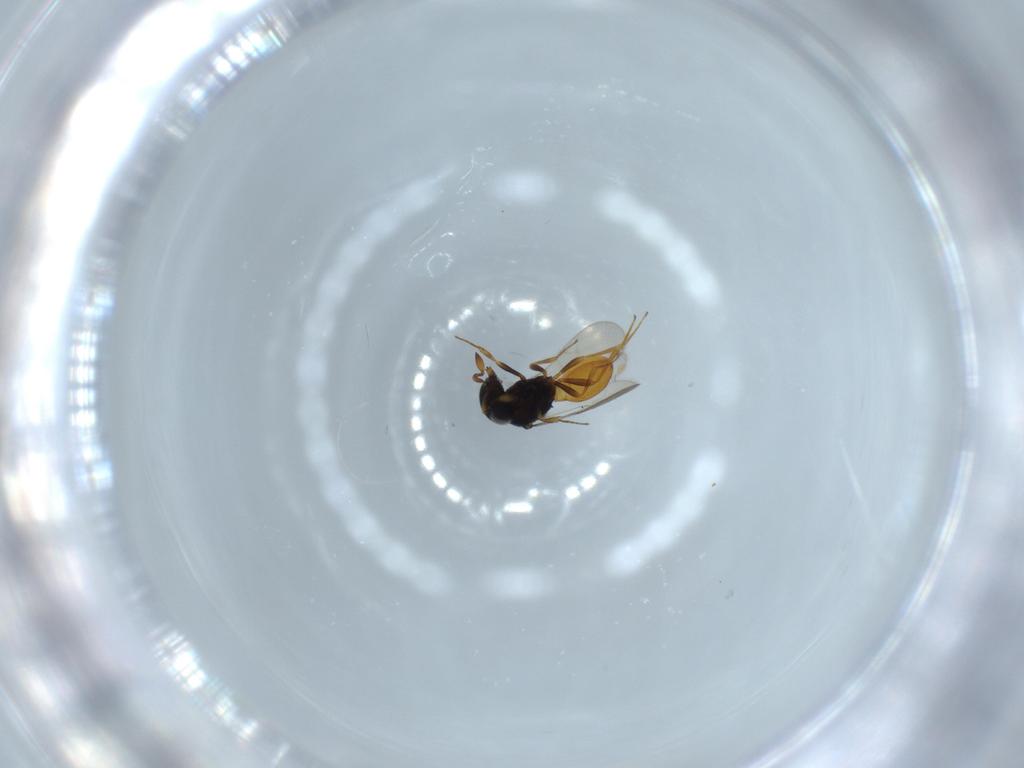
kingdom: Animalia
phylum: Arthropoda
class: Insecta
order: Hymenoptera
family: Scelionidae
